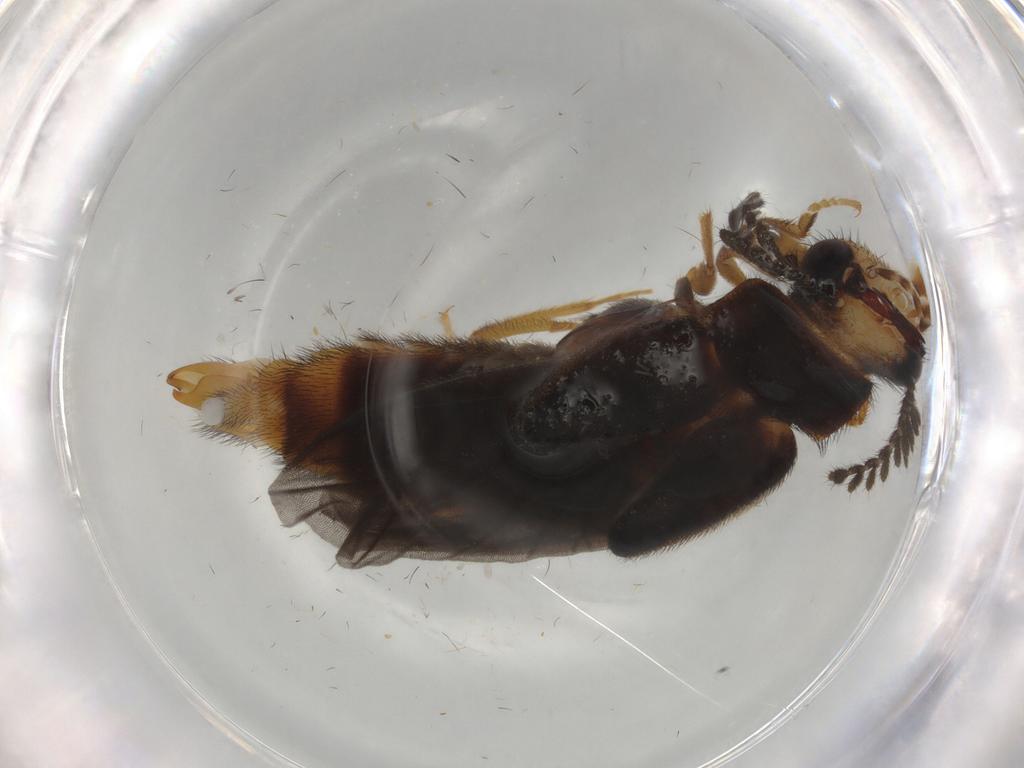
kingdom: Animalia
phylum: Arthropoda
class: Insecta
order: Coleoptera
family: Phengodidae
